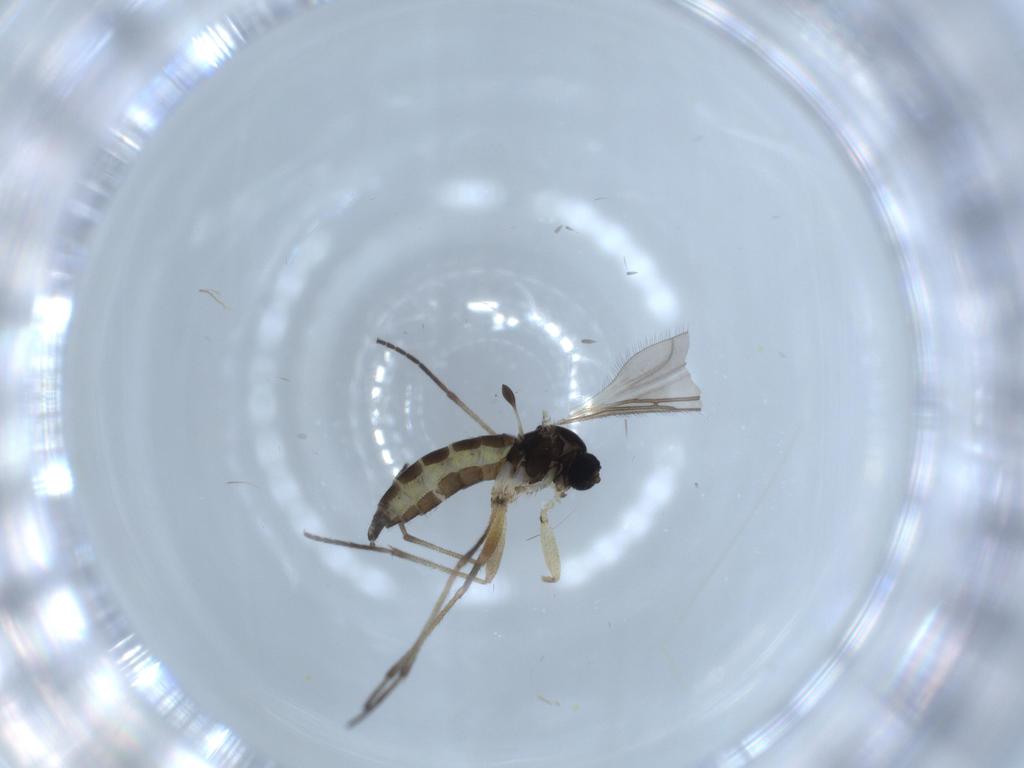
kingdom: Animalia
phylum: Arthropoda
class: Insecta
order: Diptera
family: Sciaridae
